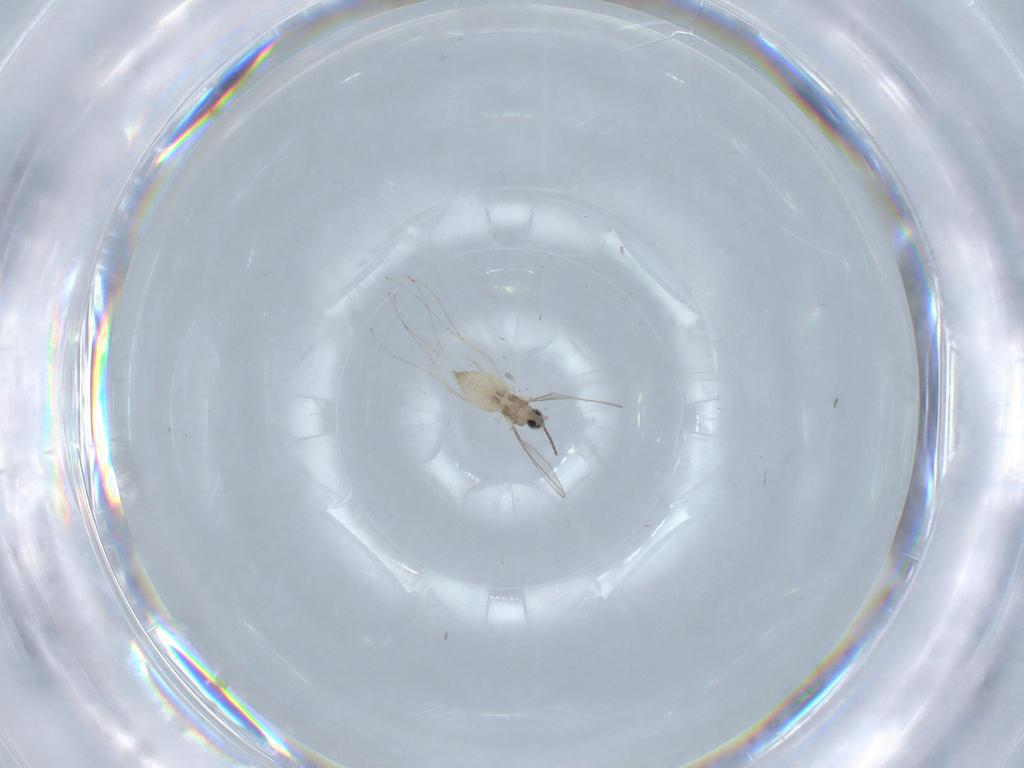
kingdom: Animalia
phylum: Arthropoda
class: Insecta
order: Diptera
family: Cecidomyiidae
